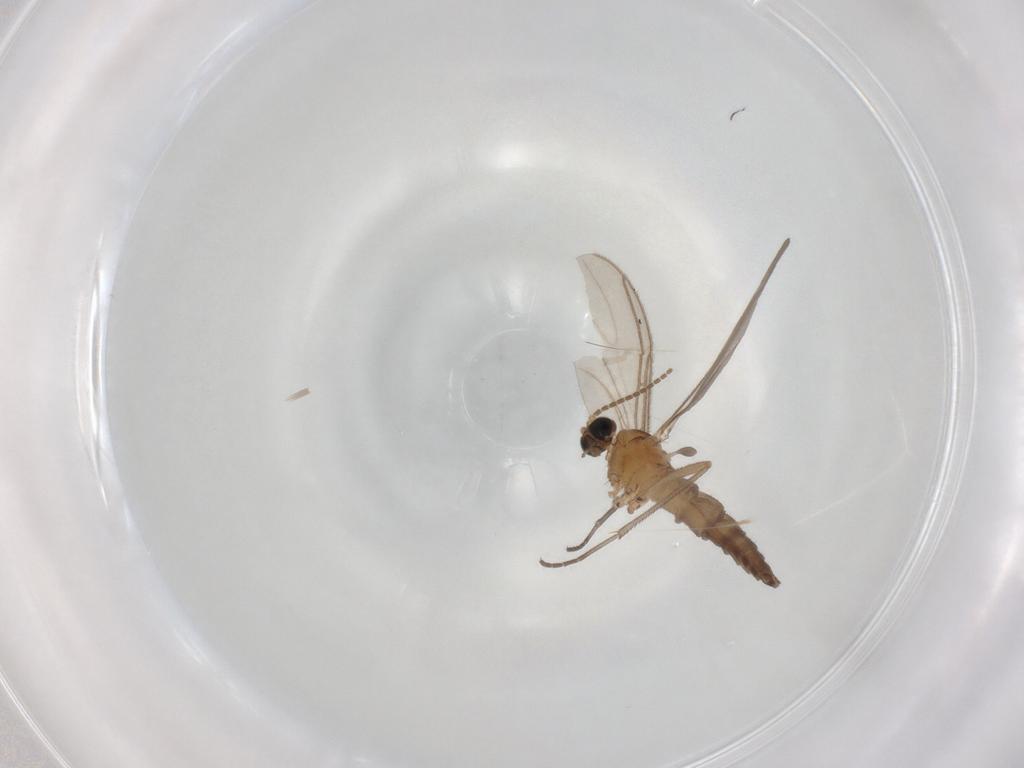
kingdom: Animalia
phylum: Arthropoda
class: Insecta
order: Diptera
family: Sciaridae
